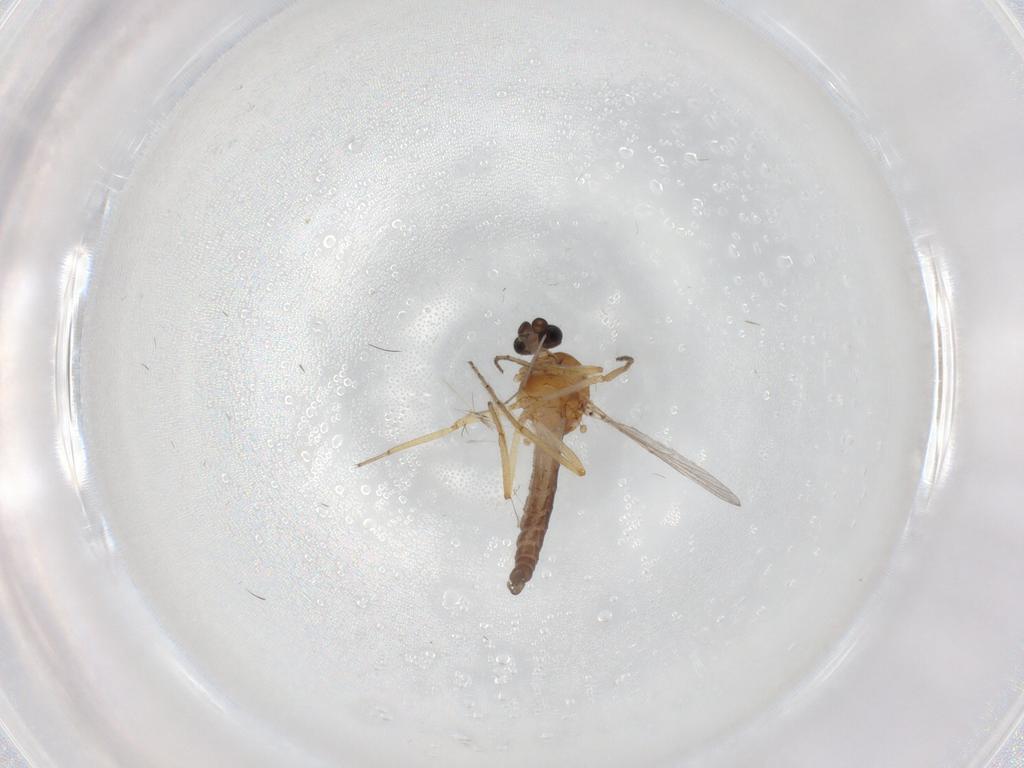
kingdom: Animalia
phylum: Arthropoda
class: Insecta
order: Diptera
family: Ceratopogonidae
